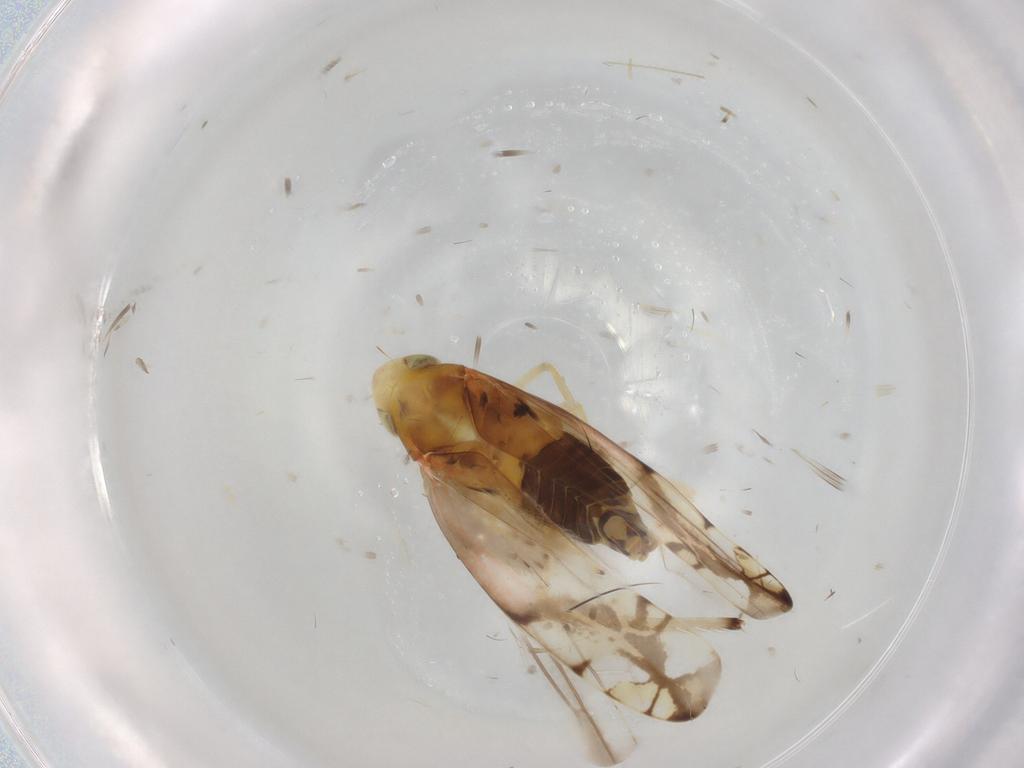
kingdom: Animalia
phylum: Arthropoda
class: Insecta
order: Hemiptera
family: Cicadellidae
